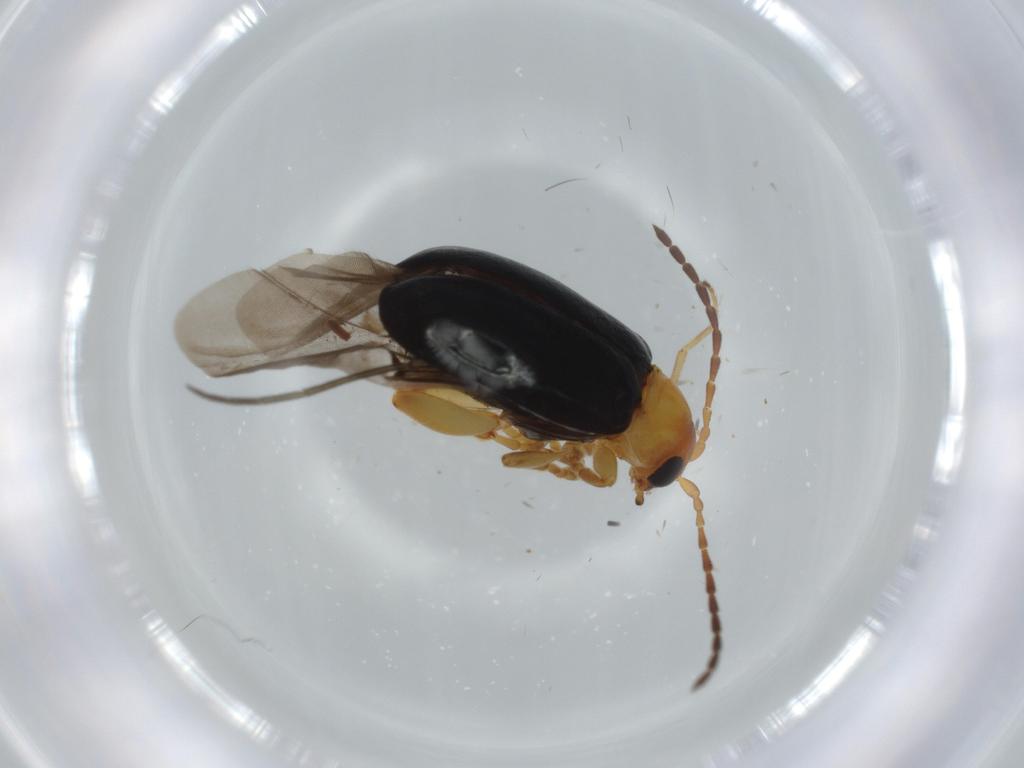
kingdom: Animalia
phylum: Arthropoda
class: Insecta
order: Coleoptera
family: Chrysomelidae
